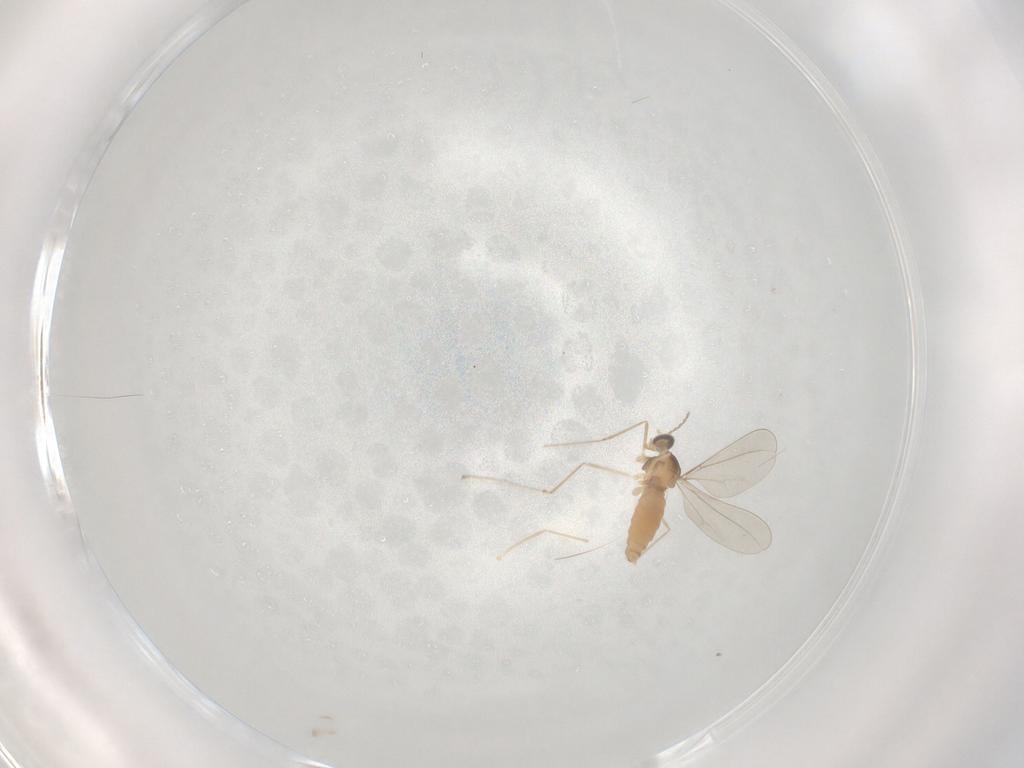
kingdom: Animalia
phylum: Arthropoda
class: Insecta
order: Diptera
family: Cecidomyiidae
